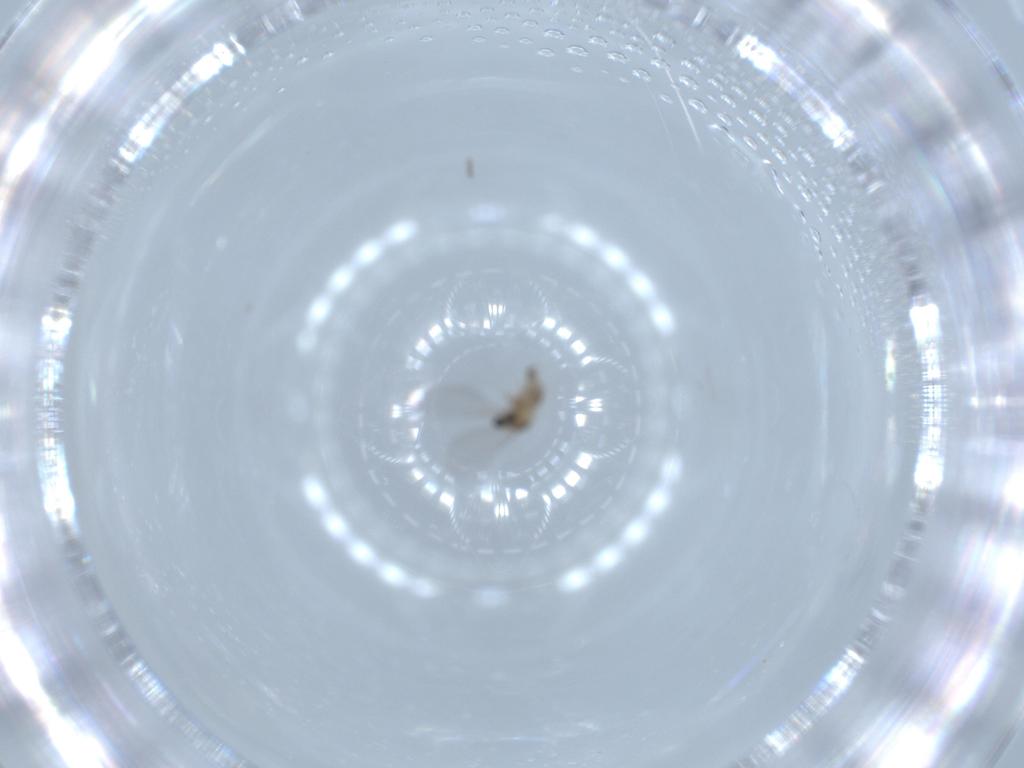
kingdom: Animalia
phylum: Arthropoda
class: Insecta
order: Diptera
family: Cecidomyiidae
